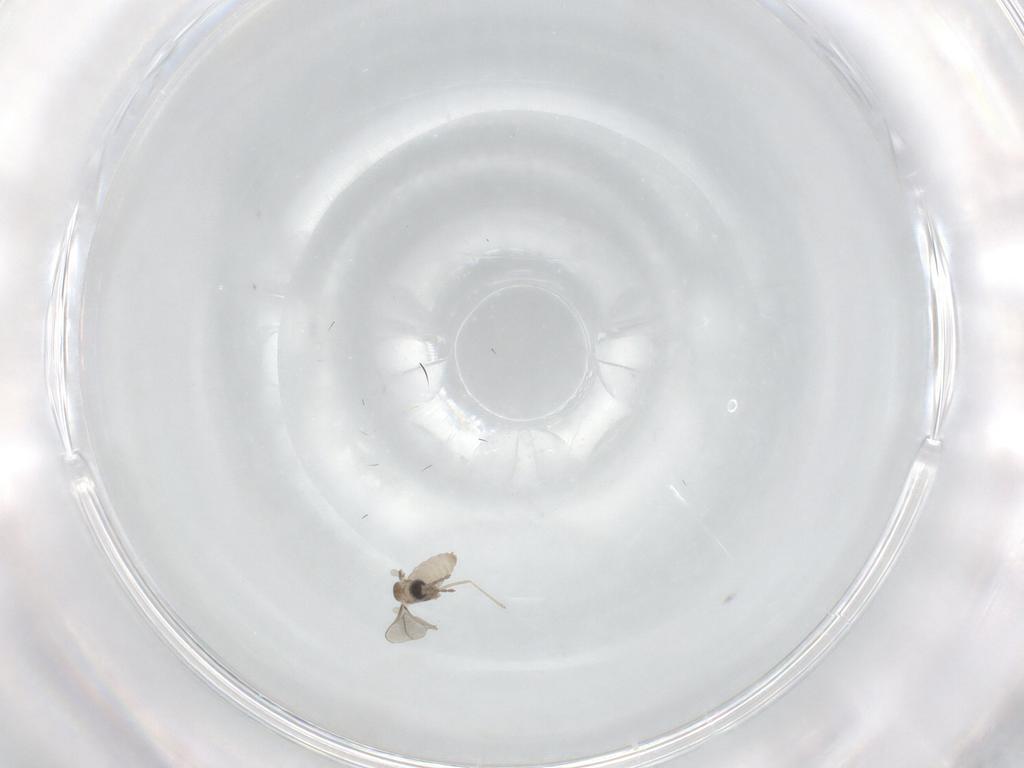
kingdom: Animalia
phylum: Arthropoda
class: Insecta
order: Diptera
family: Cecidomyiidae
